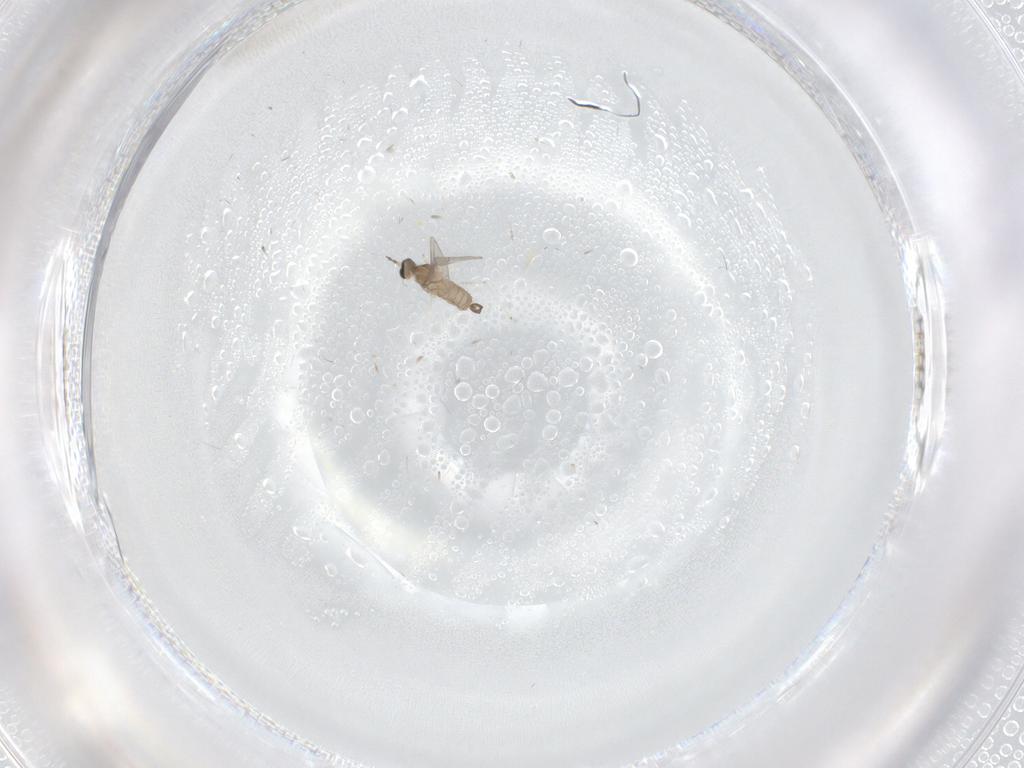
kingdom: Animalia
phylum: Arthropoda
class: Insecta
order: Diptera
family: Cecidomyiidae
